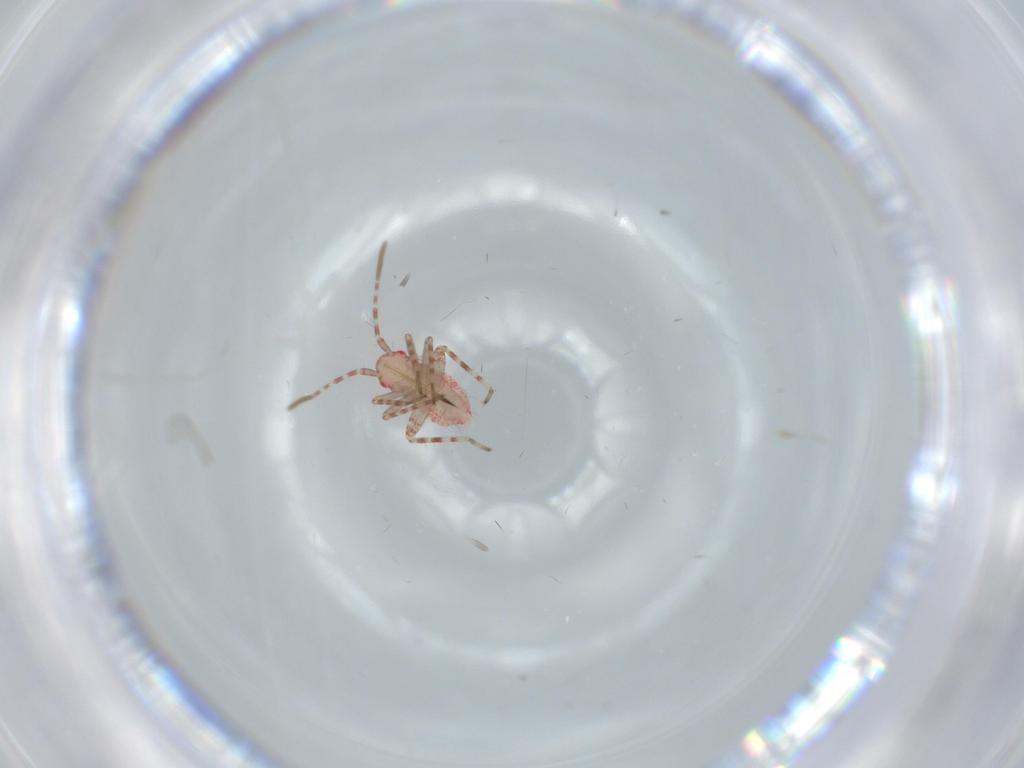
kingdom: Animalia
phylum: Arthropoda
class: Insecta
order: Hemiptera
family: Miridae
